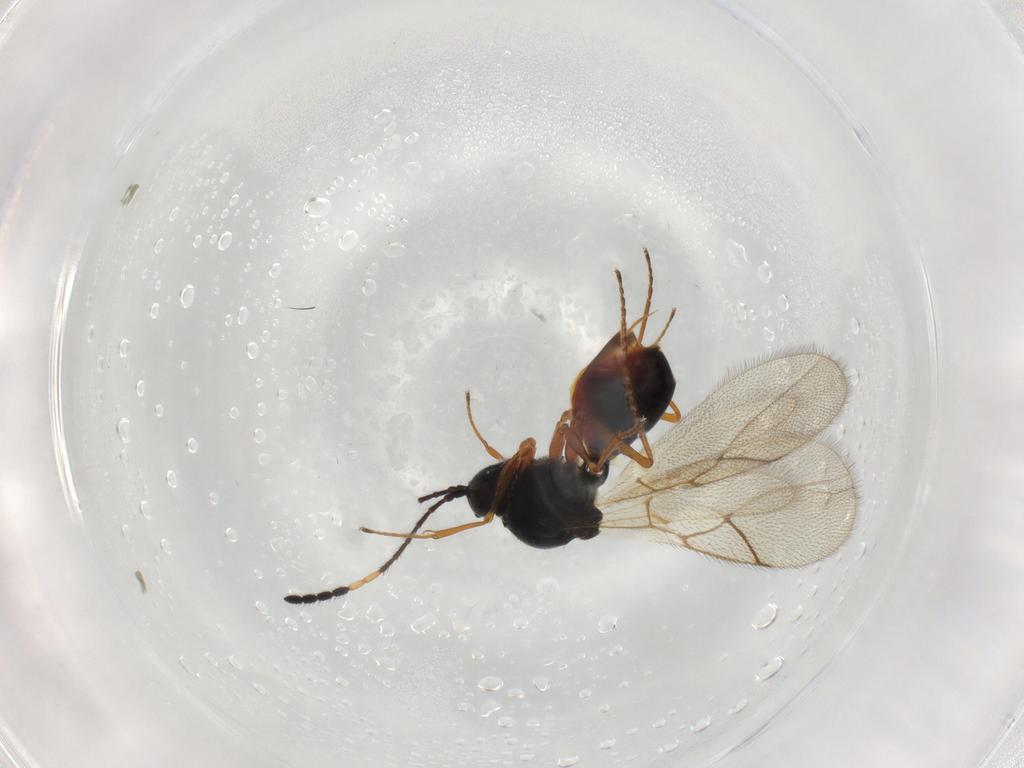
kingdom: Animalia
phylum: Arthropoda
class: Insecta
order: Hymenoptera
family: Figitidae
